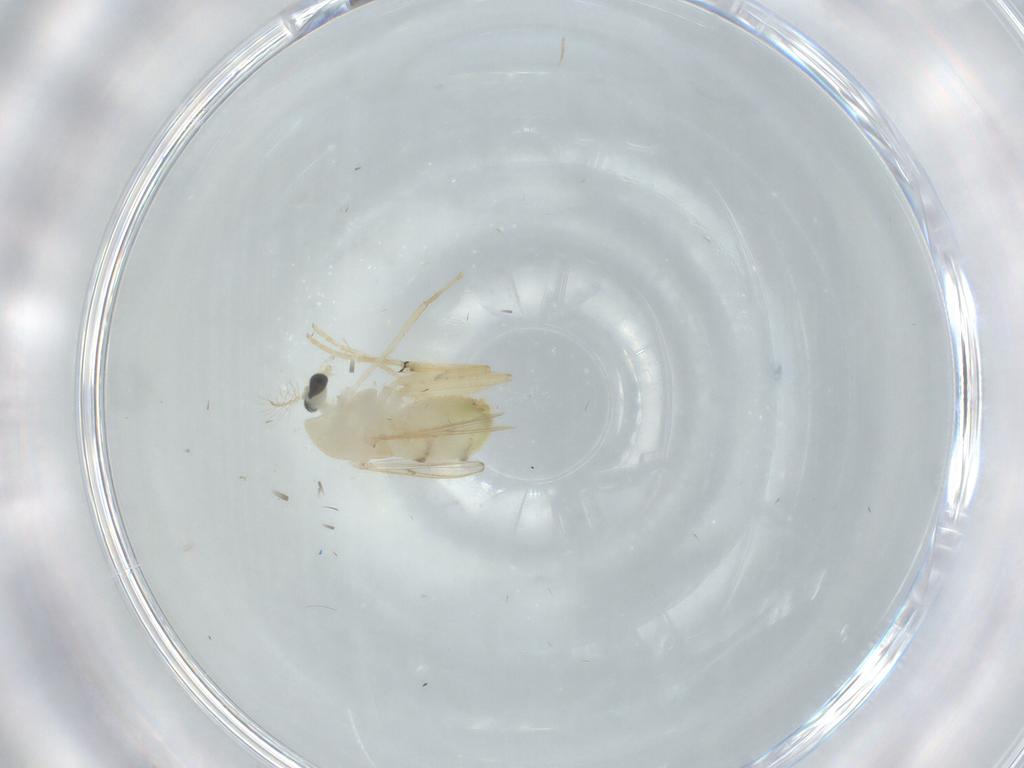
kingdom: Animalia
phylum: Arthropoda
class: Insecta
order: Diptera
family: Chironomidae
